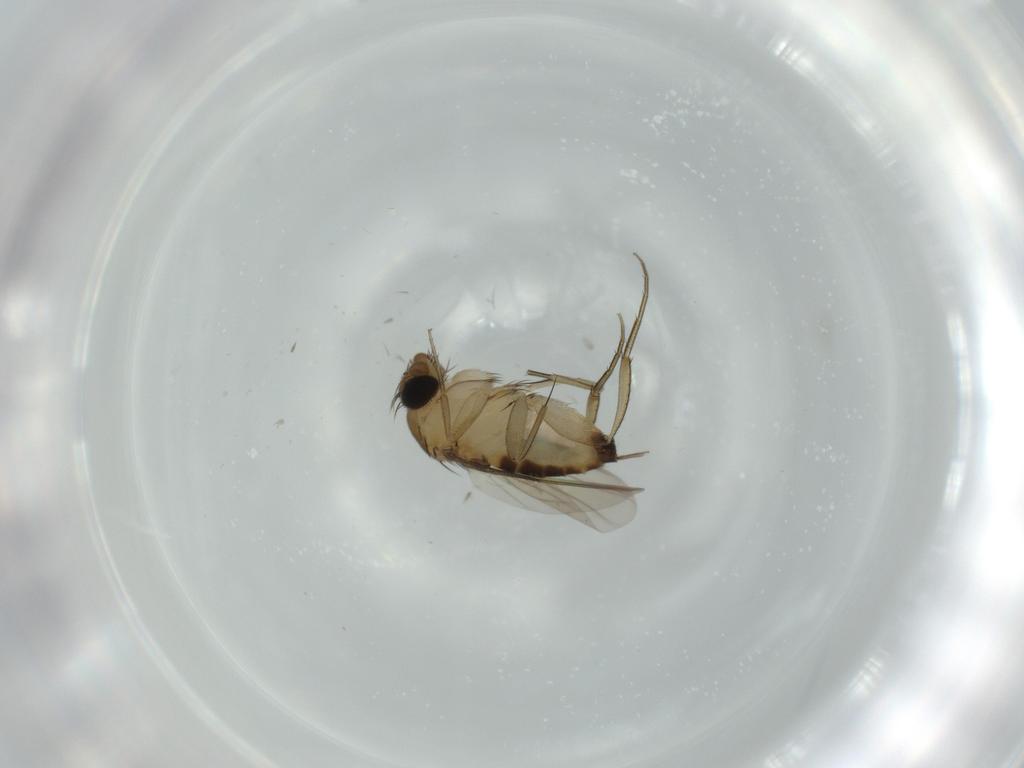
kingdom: Animalia
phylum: Arthropoda
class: Insecta
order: Diptera
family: Phoridae
